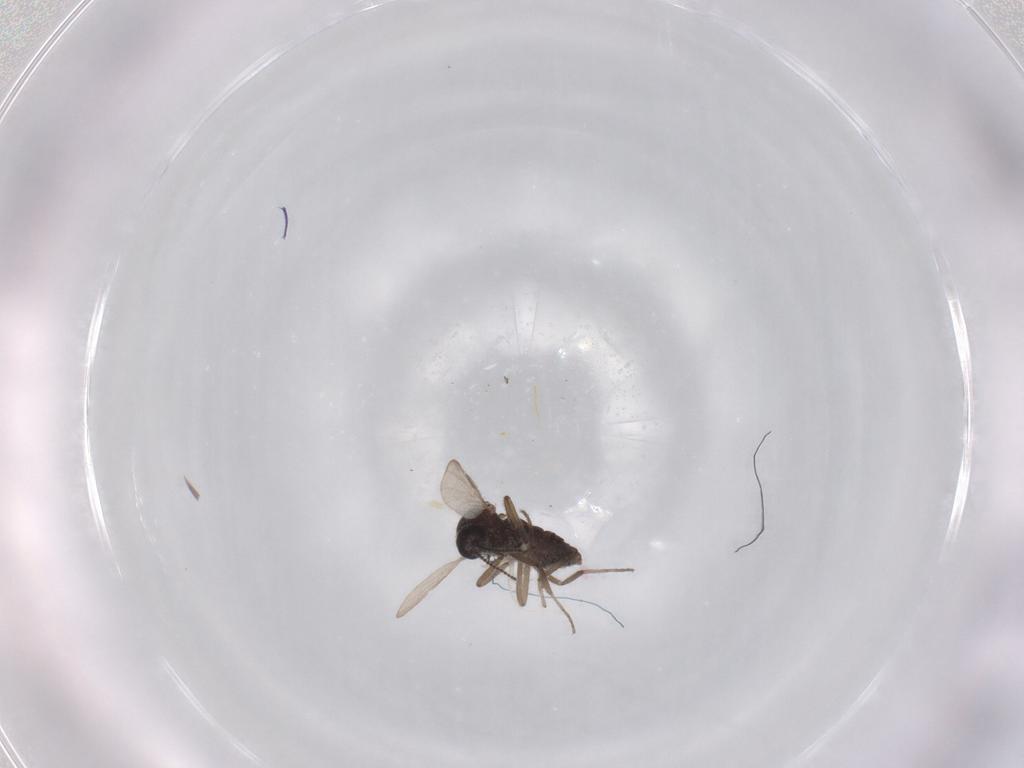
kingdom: Animalia
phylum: Arthropoda
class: Insecta
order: Diptera
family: Ceratopogonidae
